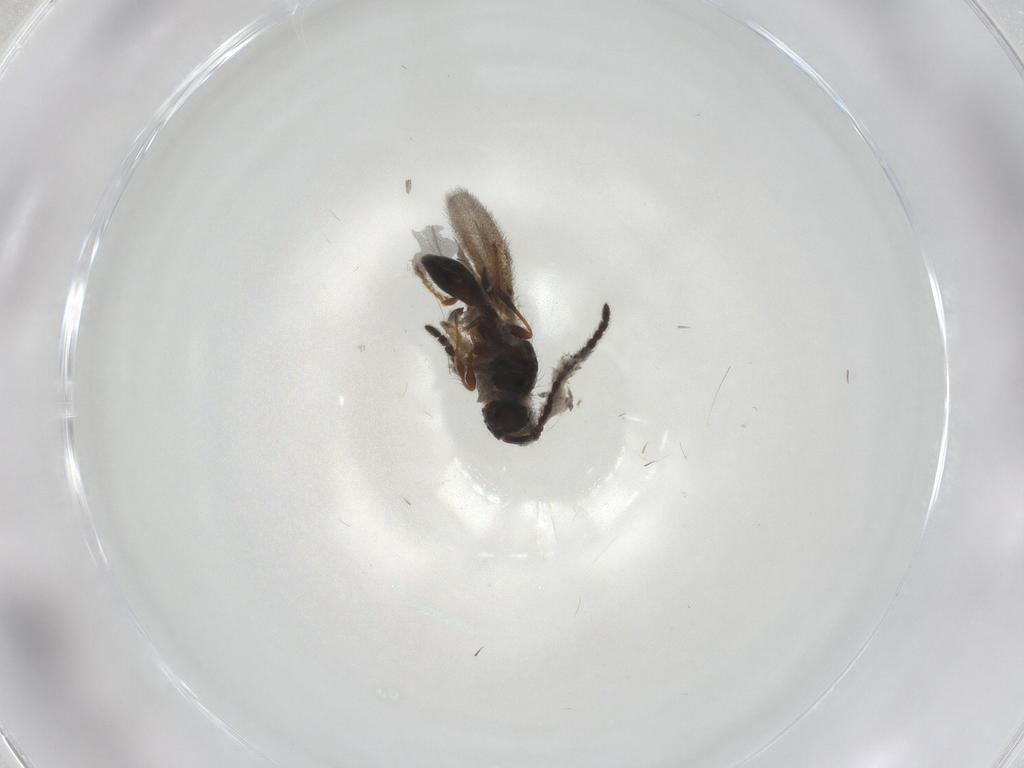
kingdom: Animalia
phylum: Arthropoda
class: Insecta
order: Hymenoptera
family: Diapriidae
